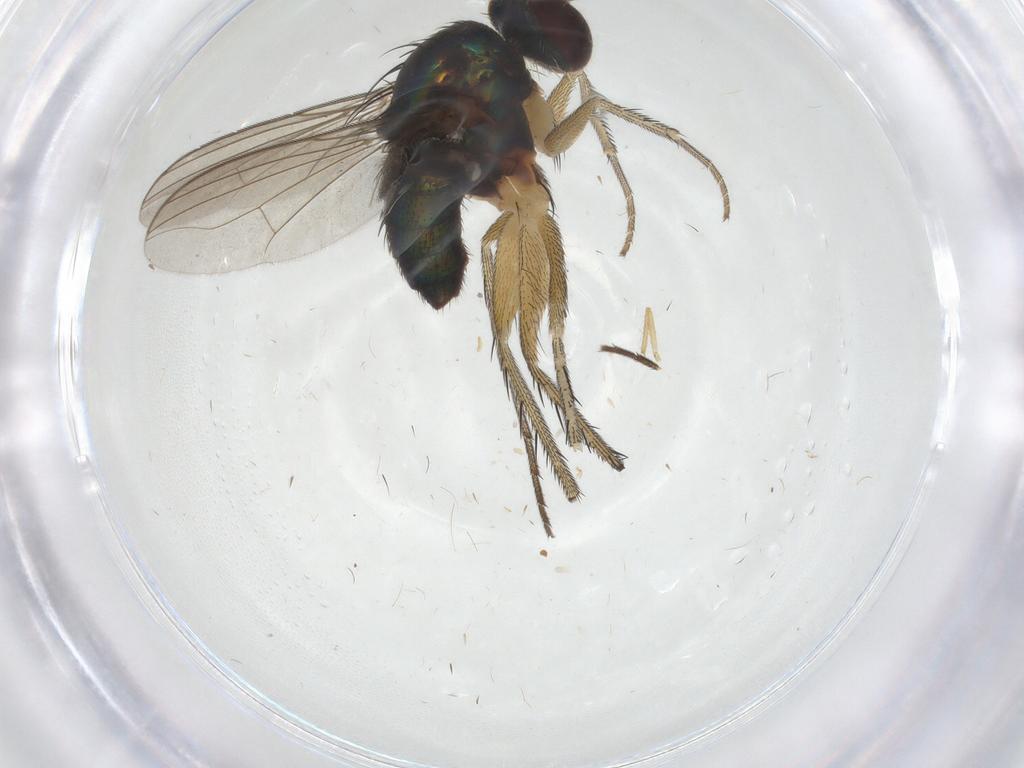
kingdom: Animalia
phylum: Arthropoda
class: Insecta
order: Diptera
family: Dolichopodidae
